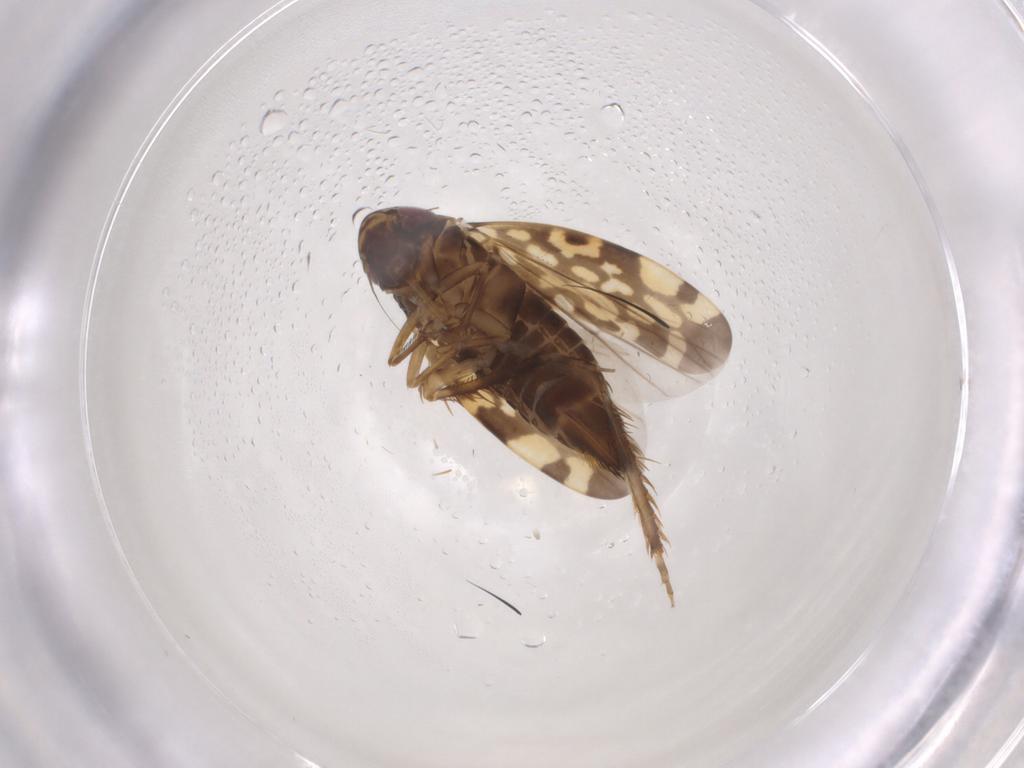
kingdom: Animalia
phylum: Arthropoda
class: Insecta
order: Hemiptera
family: Cicadellidae
